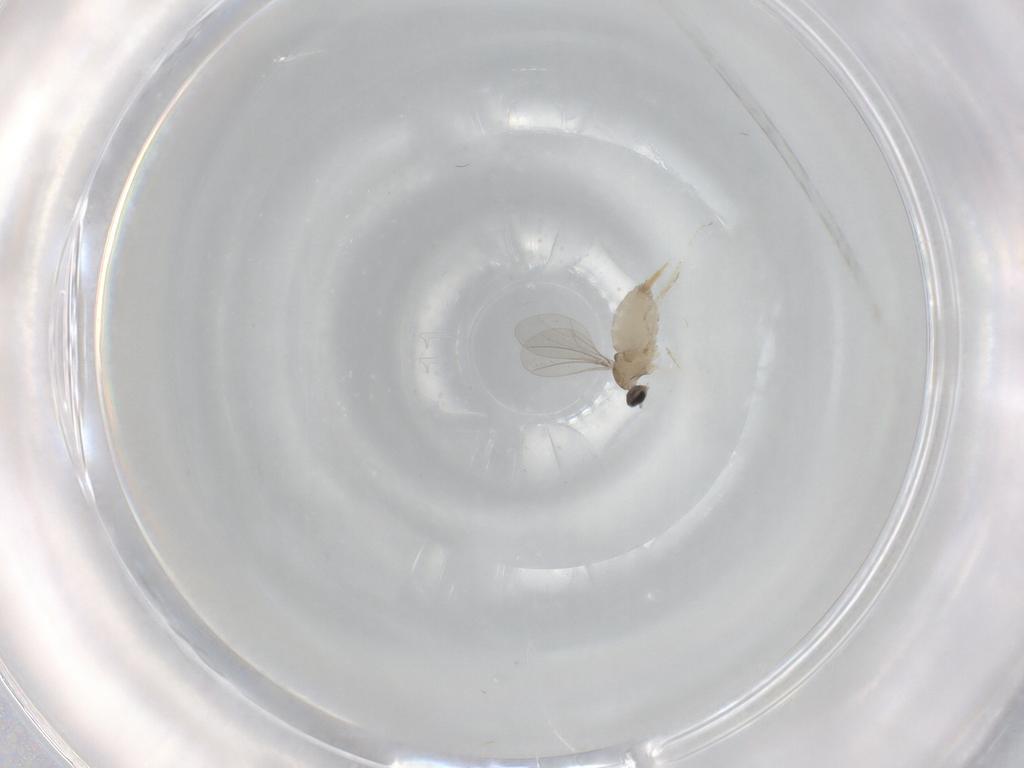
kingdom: Animalia
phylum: Arthropoda
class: Insecta
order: Diptera
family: Cecidomyiidae
